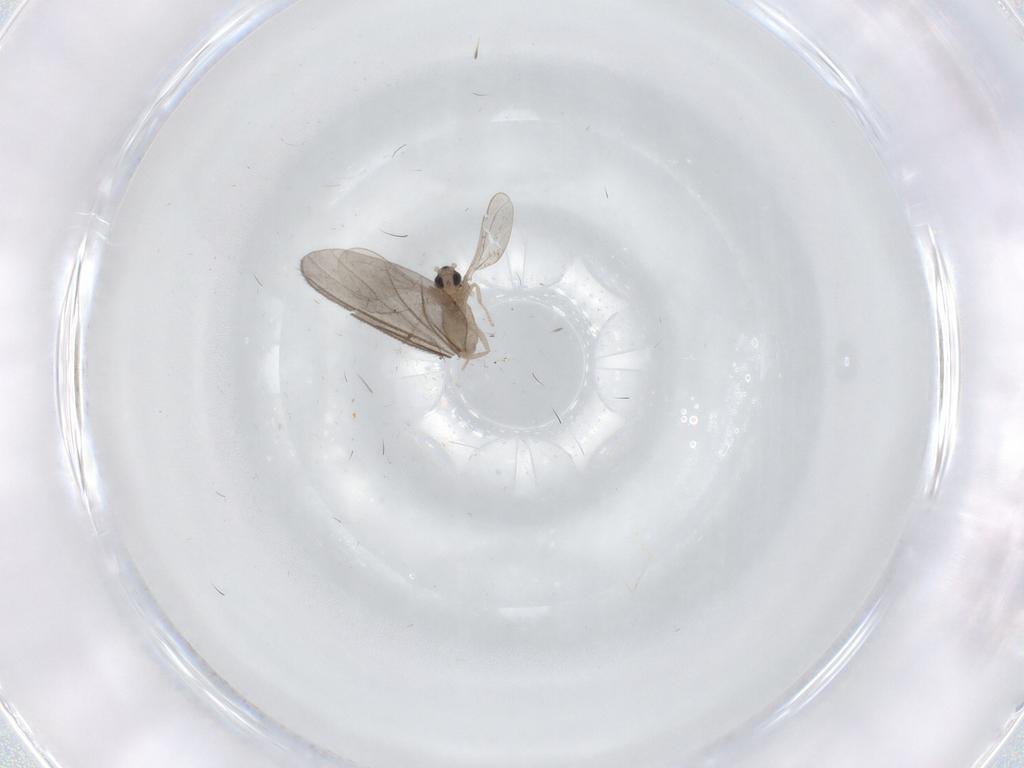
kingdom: Animalia
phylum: Arthropoda
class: Insecta
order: Diptera
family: Cecidomyiidae
